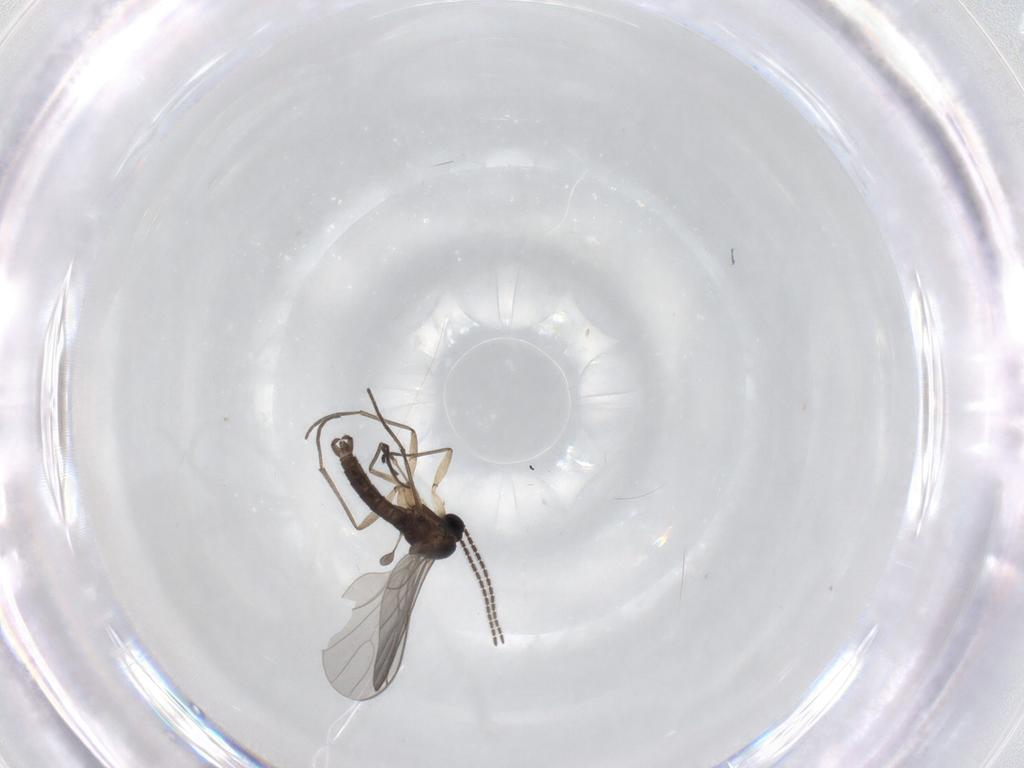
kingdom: Animalia
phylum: Arthropoda
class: Insecta
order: Diptera
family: Sciaridae
